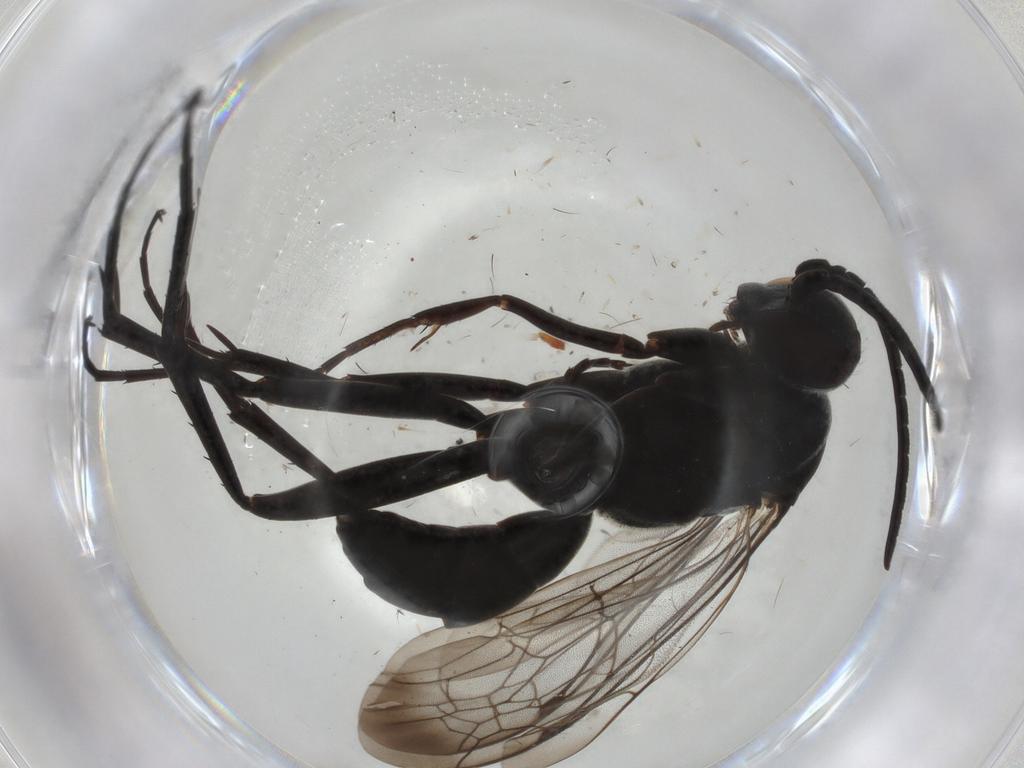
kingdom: Animalia
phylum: Arthropoda
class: Insecta
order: Hymenoptera
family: Pompilidae
